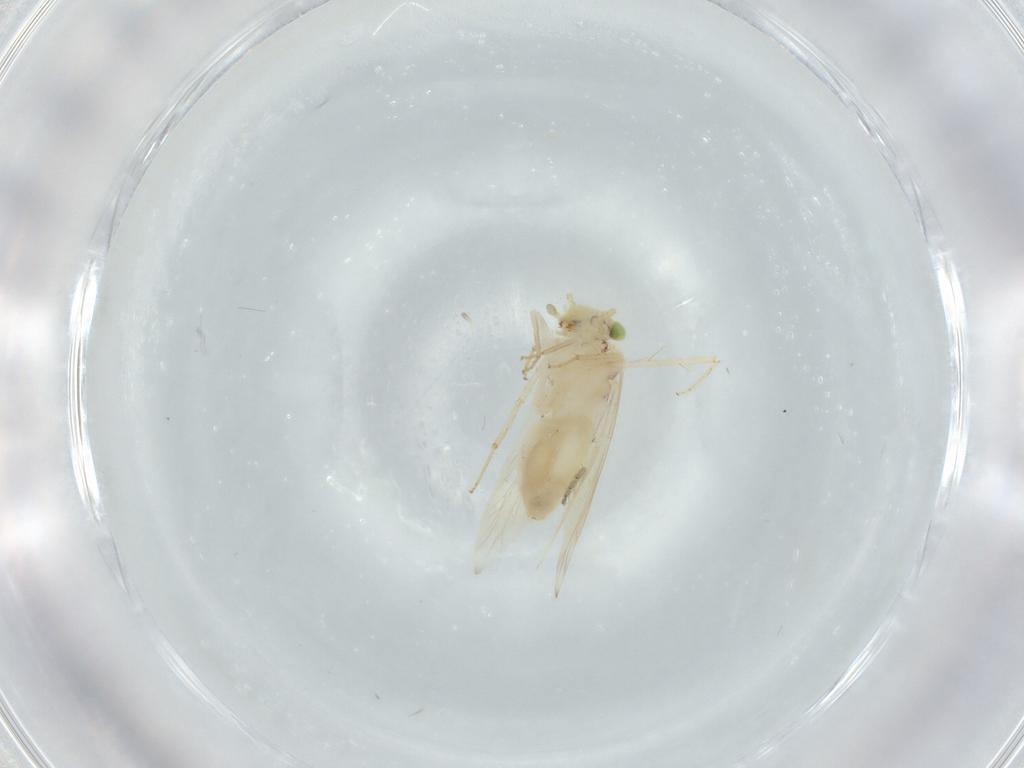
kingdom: Animalia
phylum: Arthropoda
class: Insecta
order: Psocodea
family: Lepidopsocidae
